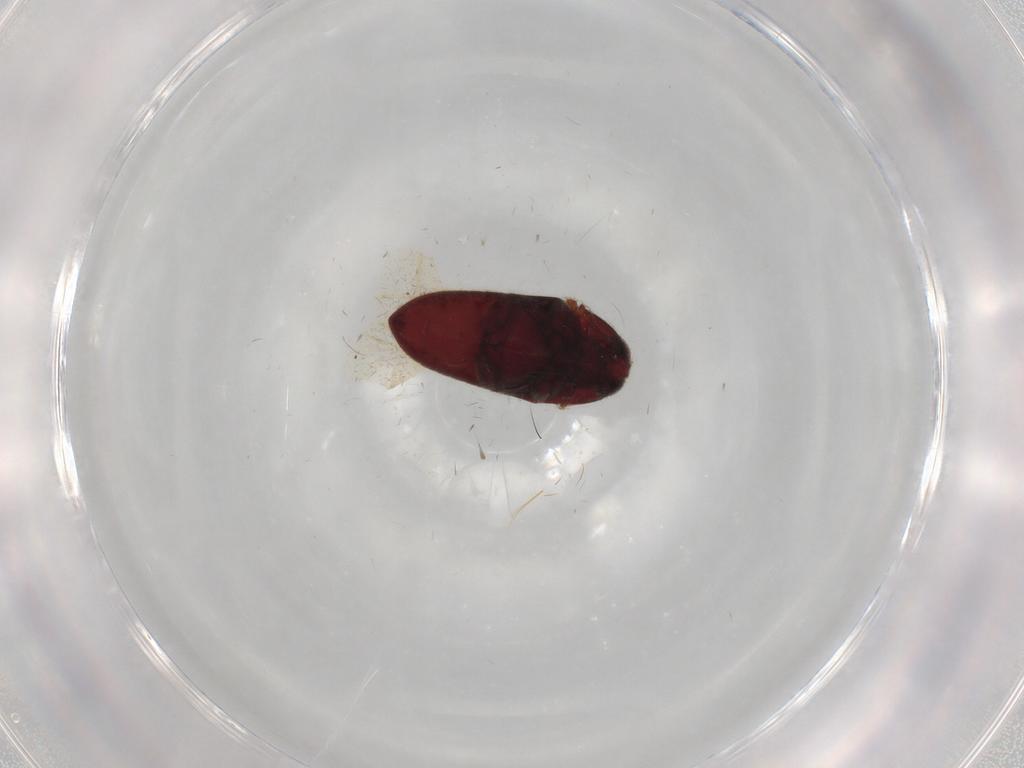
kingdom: Animalia
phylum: Arthropoda
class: Insecta
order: Coleoptera
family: Throscidae
